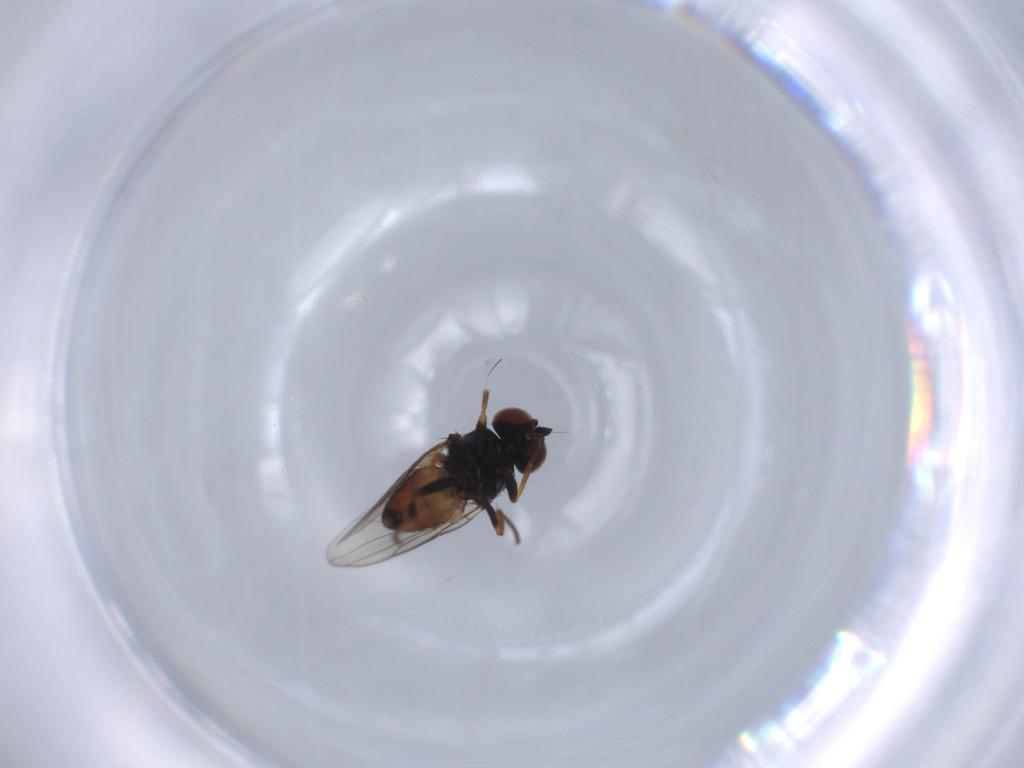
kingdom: Animalia
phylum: Arthropoda
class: Insecta
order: Diptera
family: Chloropidae
